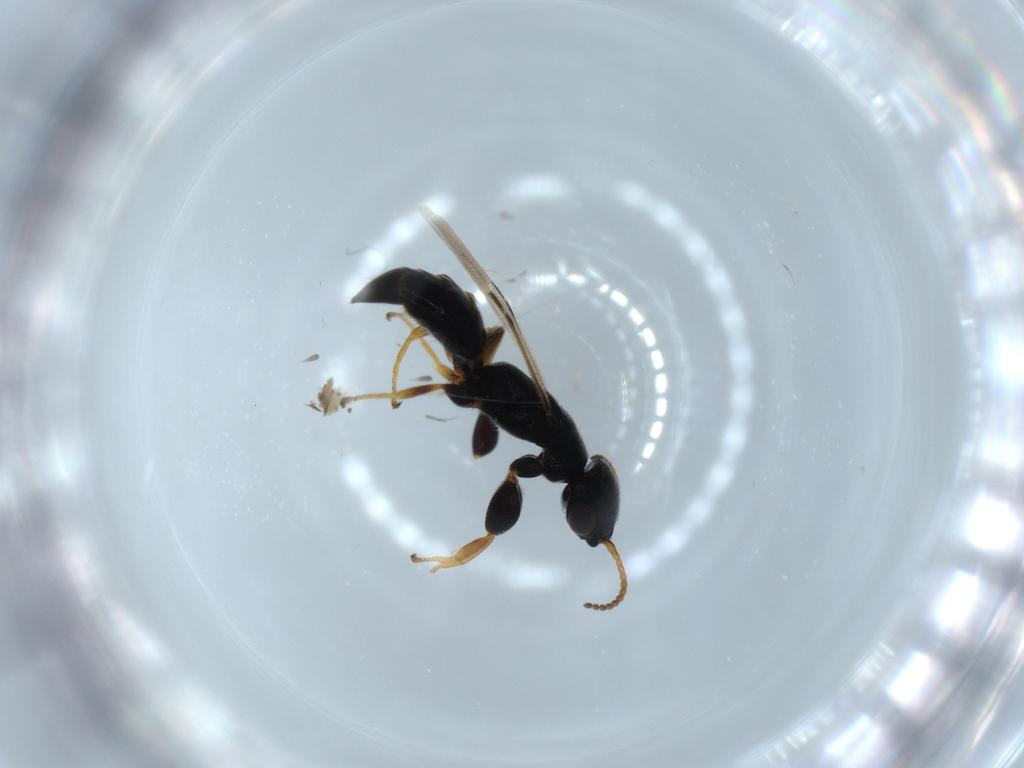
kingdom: Animalia
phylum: Arthropoda
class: Insecta
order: Hymenoptera
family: Bethylidae
